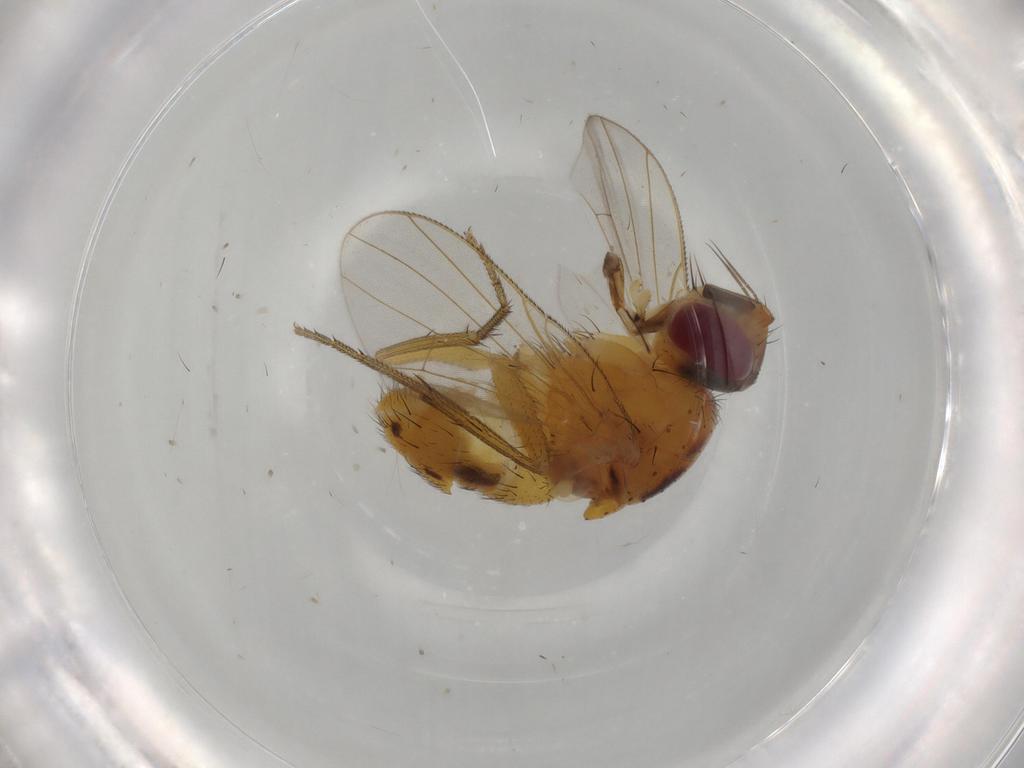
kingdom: Animalia
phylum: Arthropoda
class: Insecta
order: Diptera
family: Muscidae
